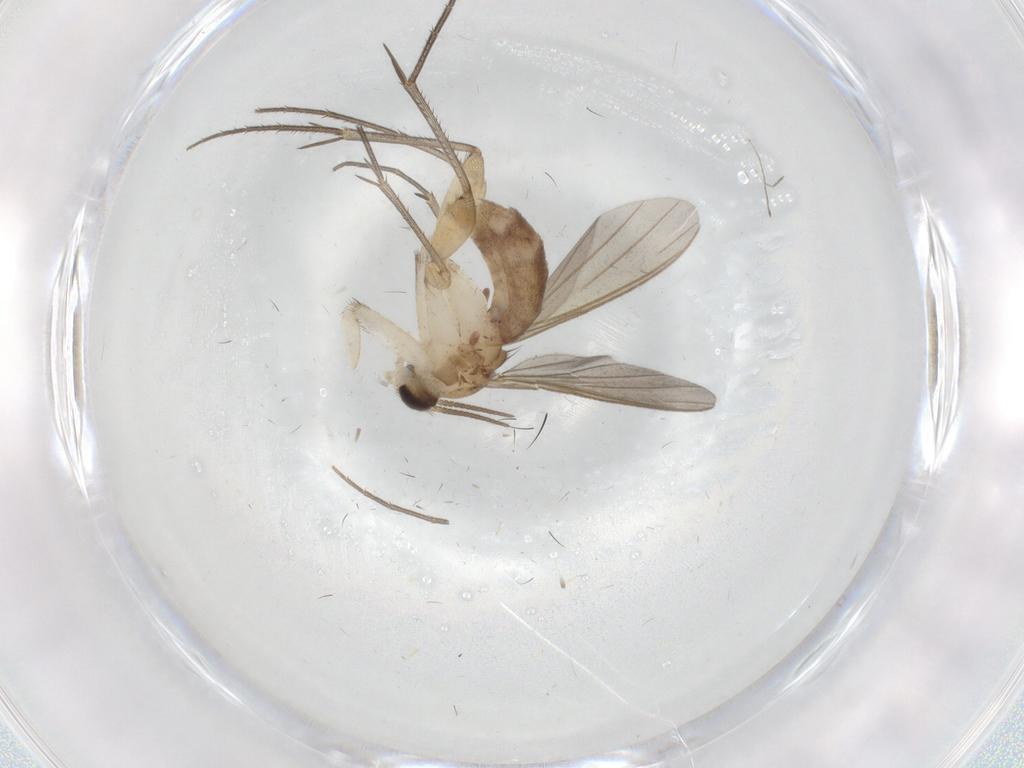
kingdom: Animalia
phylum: Arthropoda
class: Insecta
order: Diptera
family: Mycetophilidae
